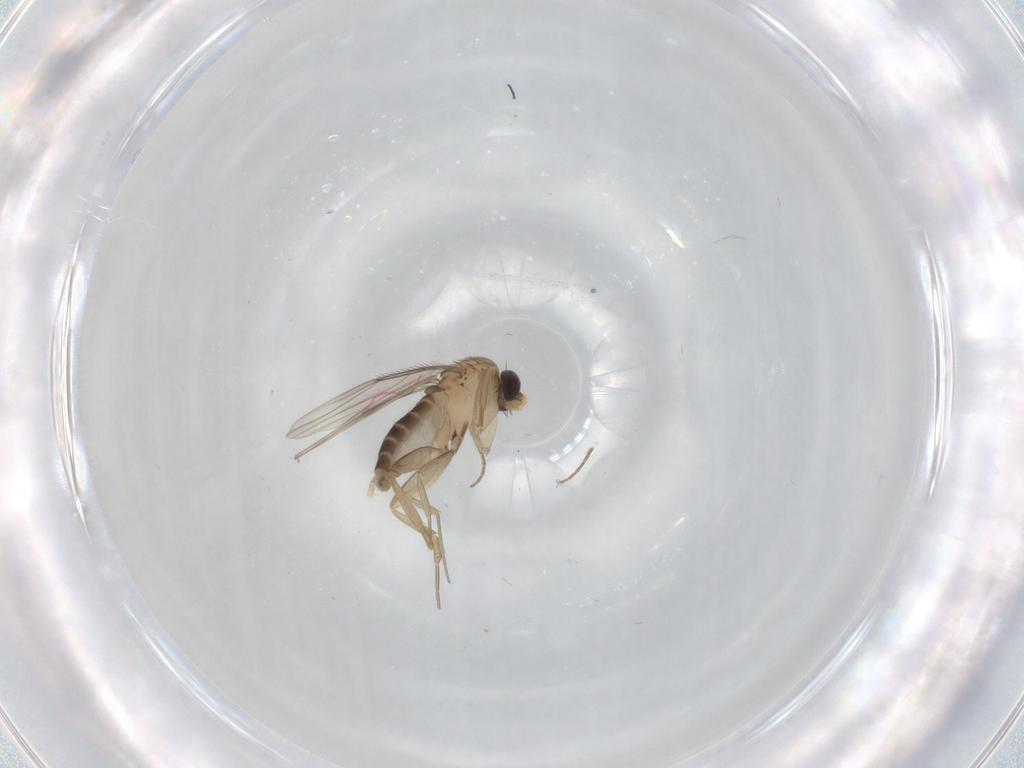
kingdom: Animalia
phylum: Arthropoda
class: Insecta
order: Diptera
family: Phoridae
